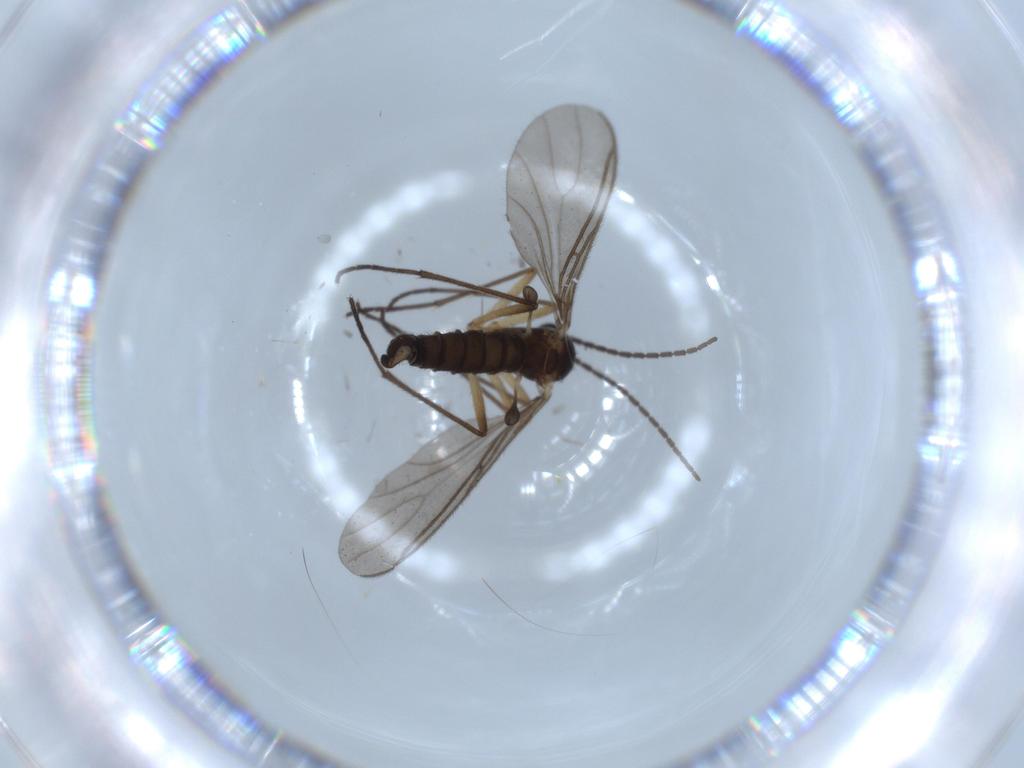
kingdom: Animalia
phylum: Arthropoda
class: Insecta
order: Diptera
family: Sciaridae
